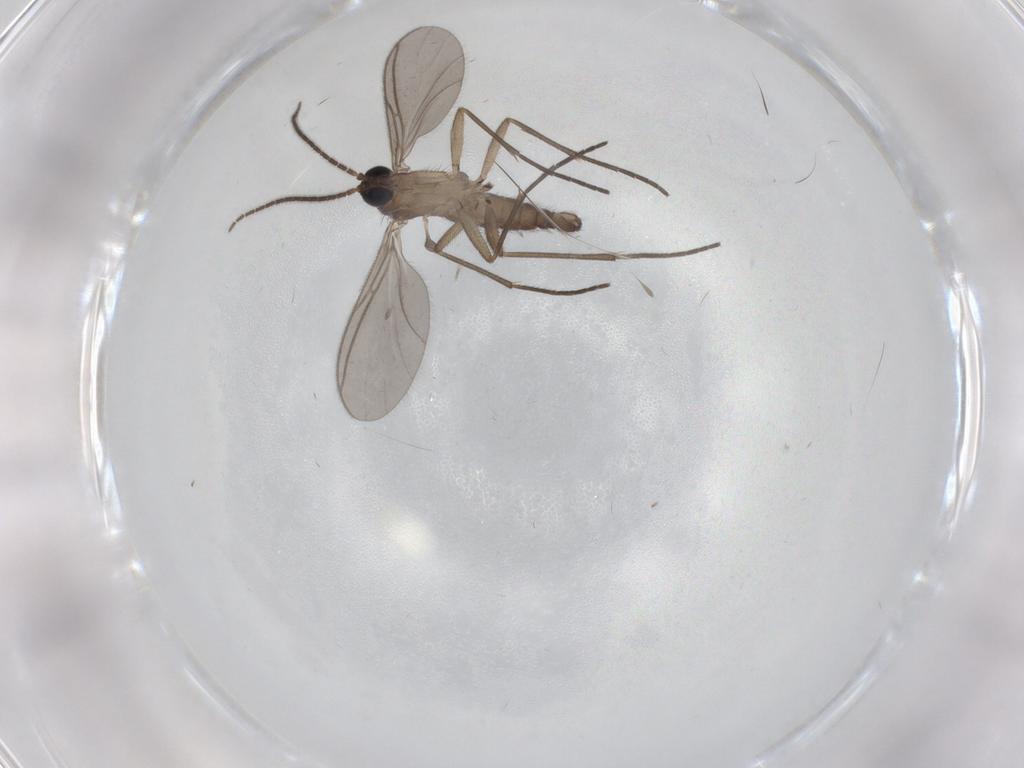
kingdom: Animalia
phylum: Arthropoda
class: Insecta
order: Diptera
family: Sciaridae
